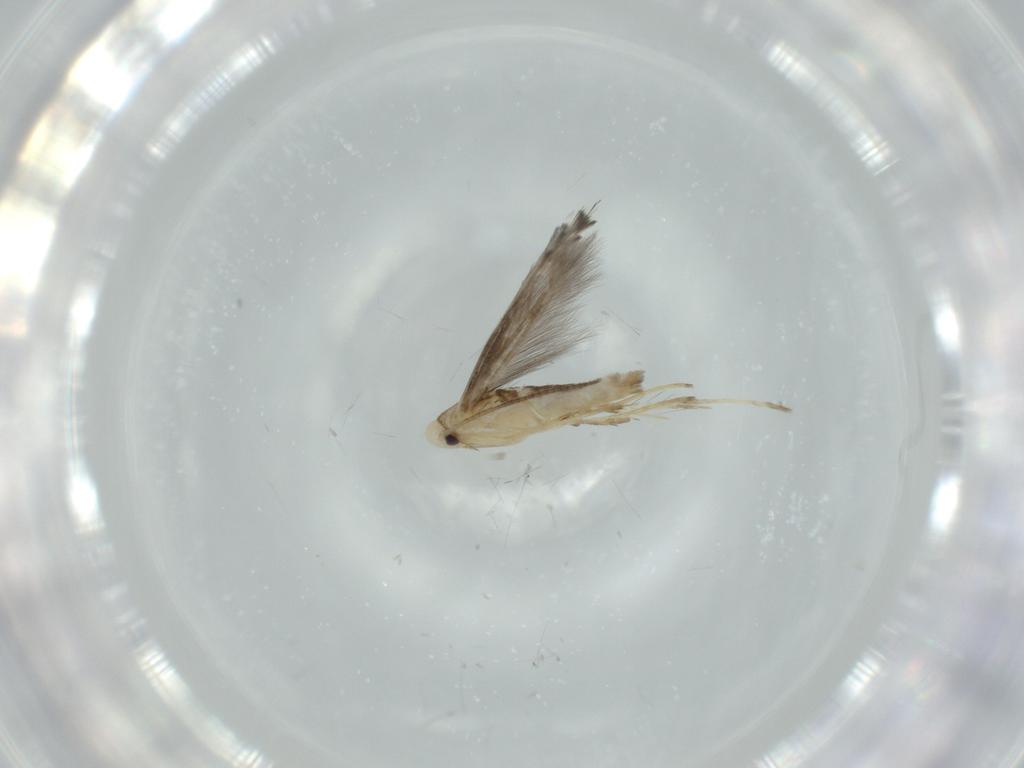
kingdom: Animalia
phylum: Arthropoda
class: Insecta
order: Lepidoptera
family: Gracillariidae
